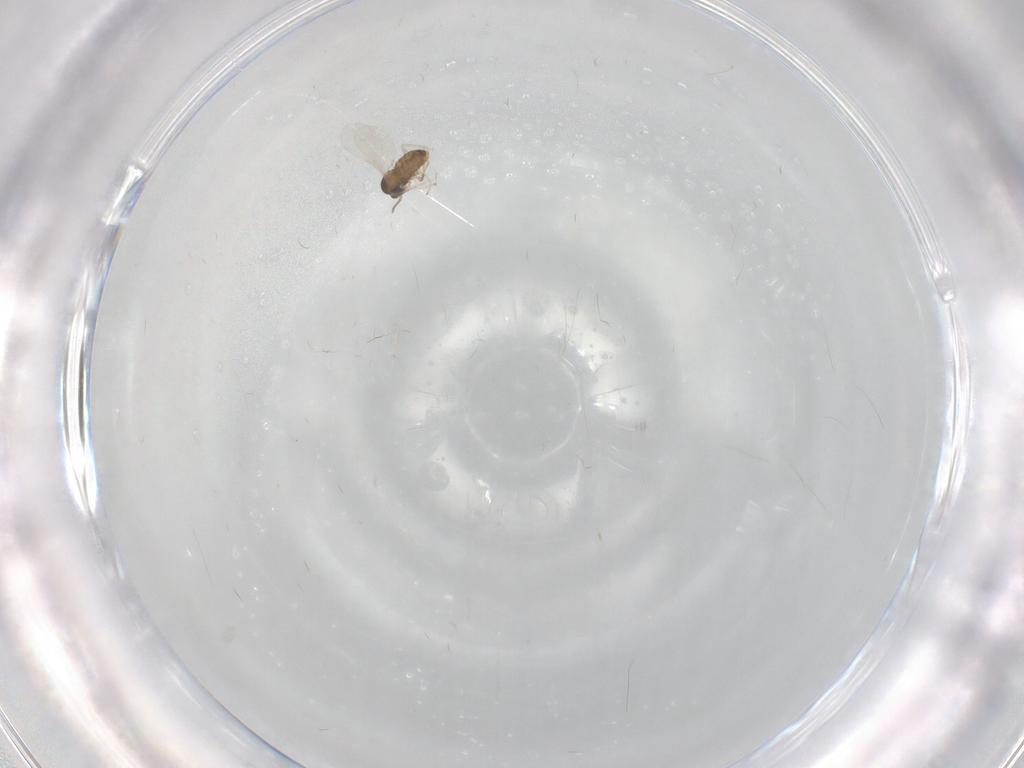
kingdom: Animalia
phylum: Arthropoda
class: Insecta
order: Diptera
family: Cecidomyiidae
